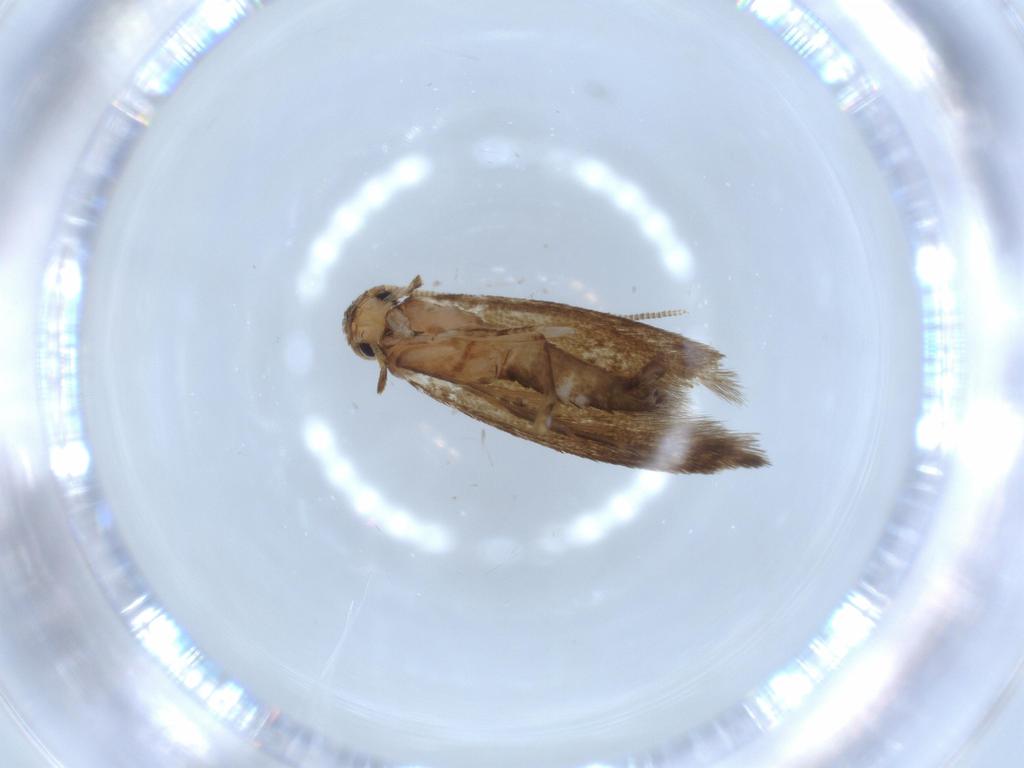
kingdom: Animalia
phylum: Arthropoda
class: Insecta
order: Lepidoptera
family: Tineidae
